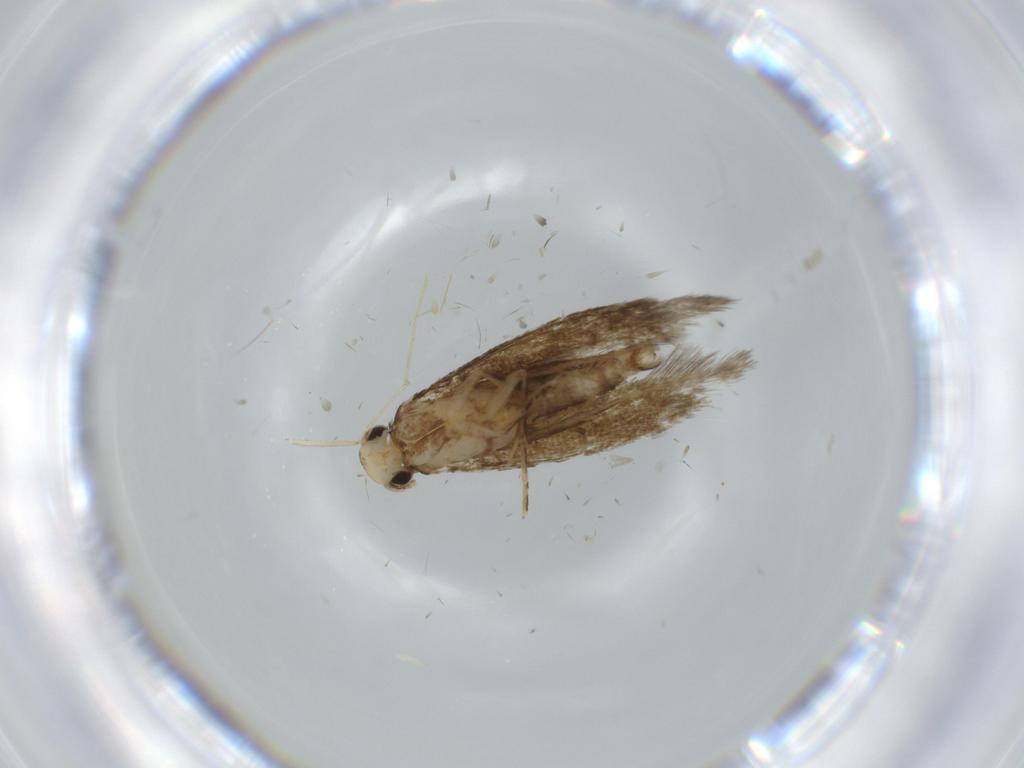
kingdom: Animalia
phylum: Arthropoda
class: Insecta
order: Lepidoptera
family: Tineidae
